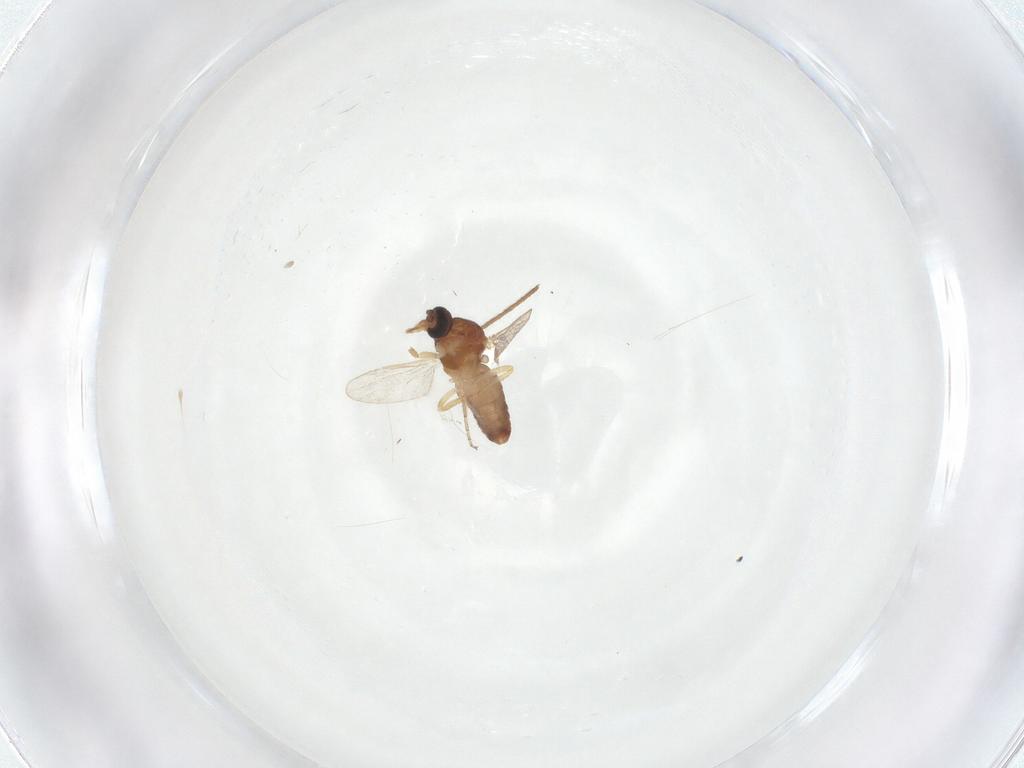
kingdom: Animalia
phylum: Arthropoda
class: Insecta
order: Diptera
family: Ceratopogonidae
